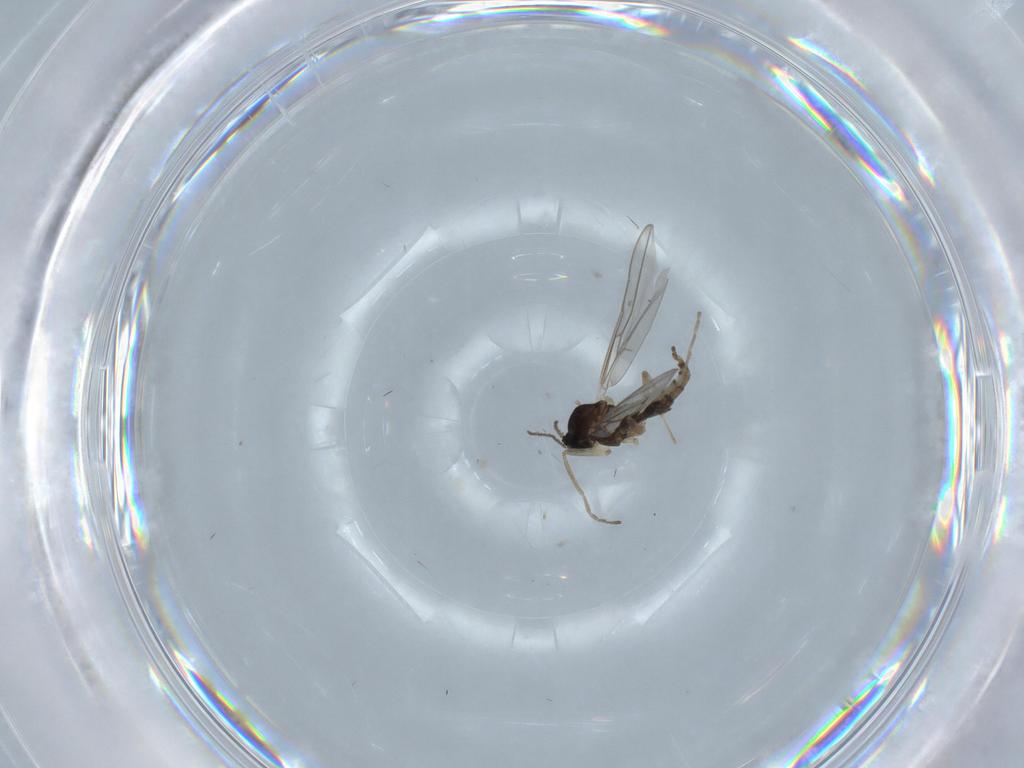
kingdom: Animalia
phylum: Arthropoda
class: Insecta
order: Diptera
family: Cecidomyiidae
